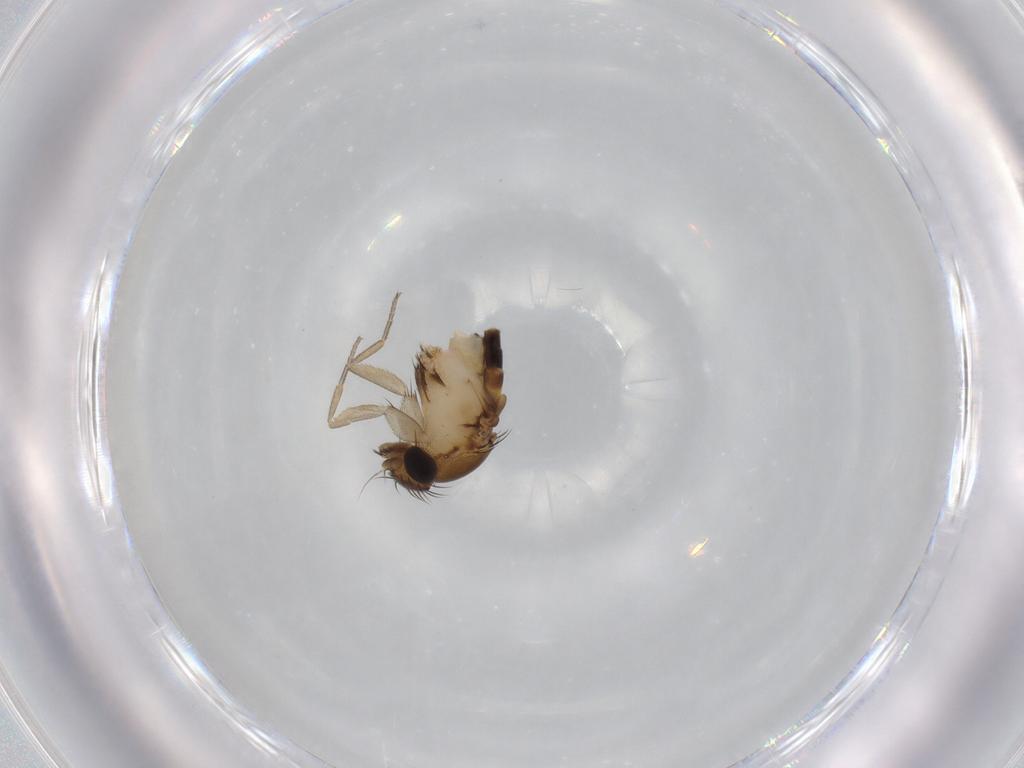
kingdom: Animalia
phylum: Arthropoda
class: Insecta
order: Diptera
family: Phoridae
